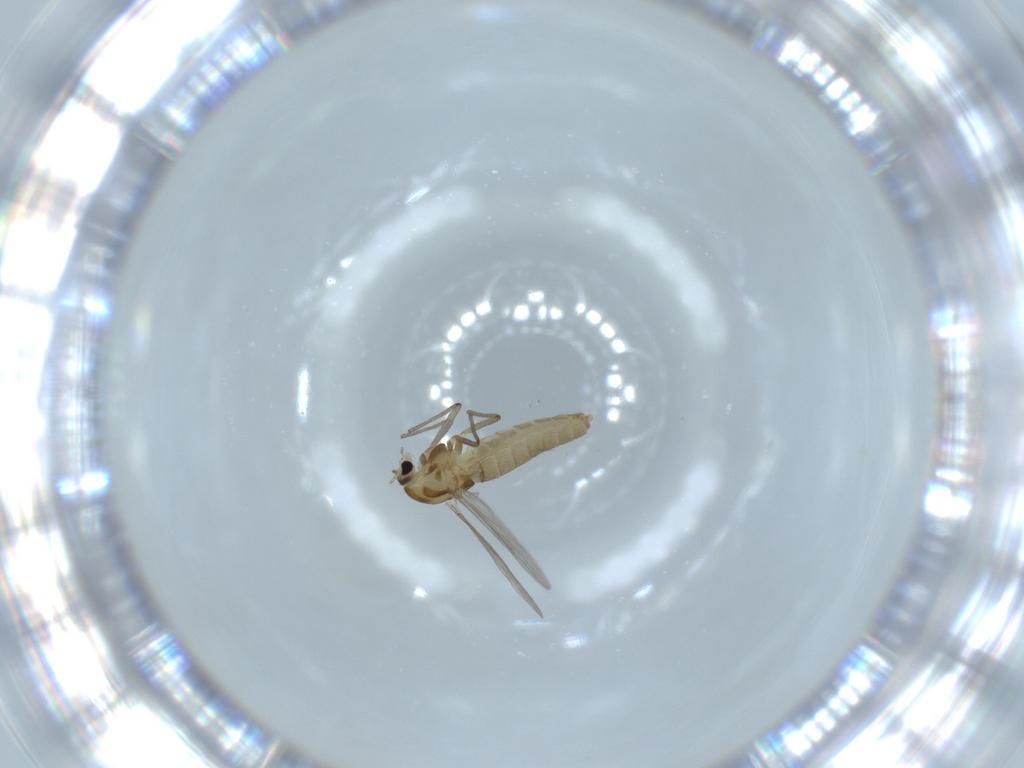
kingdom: Animalia
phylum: Arthropoda
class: Insecta
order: Diptera
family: Chironomidae
